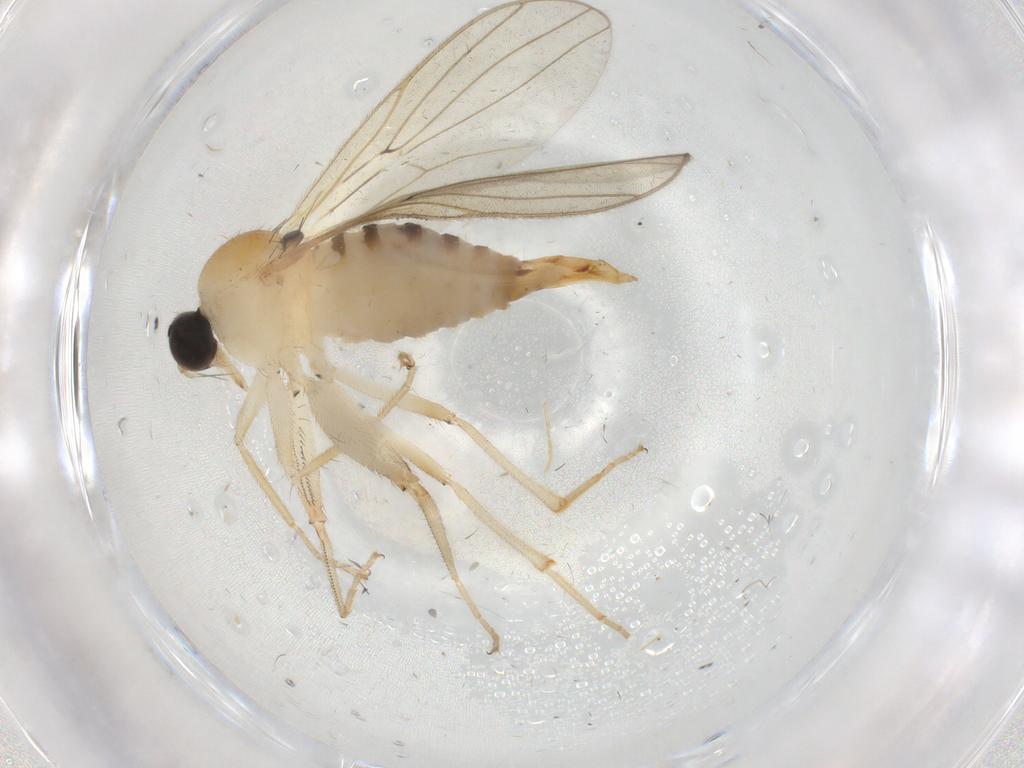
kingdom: Animalia
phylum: Arthropoda
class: Insecta
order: Diptera
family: Hybotidae
